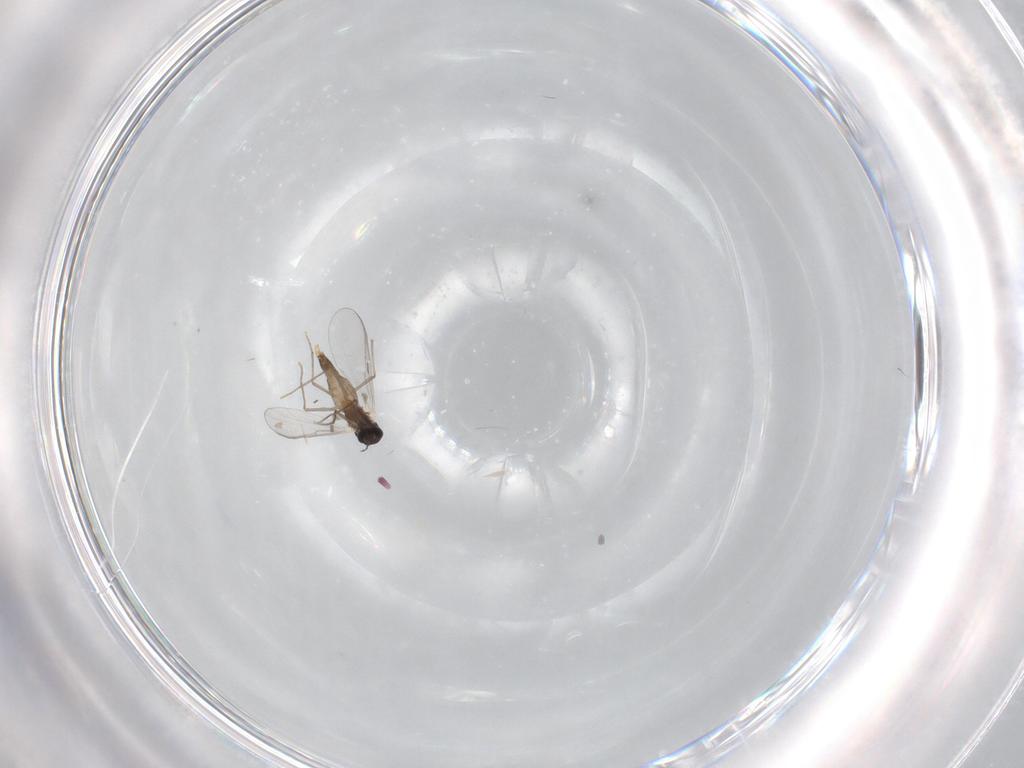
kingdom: Animalia
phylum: Arthropoda
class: Insecta
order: Diptera
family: Chironomidae
